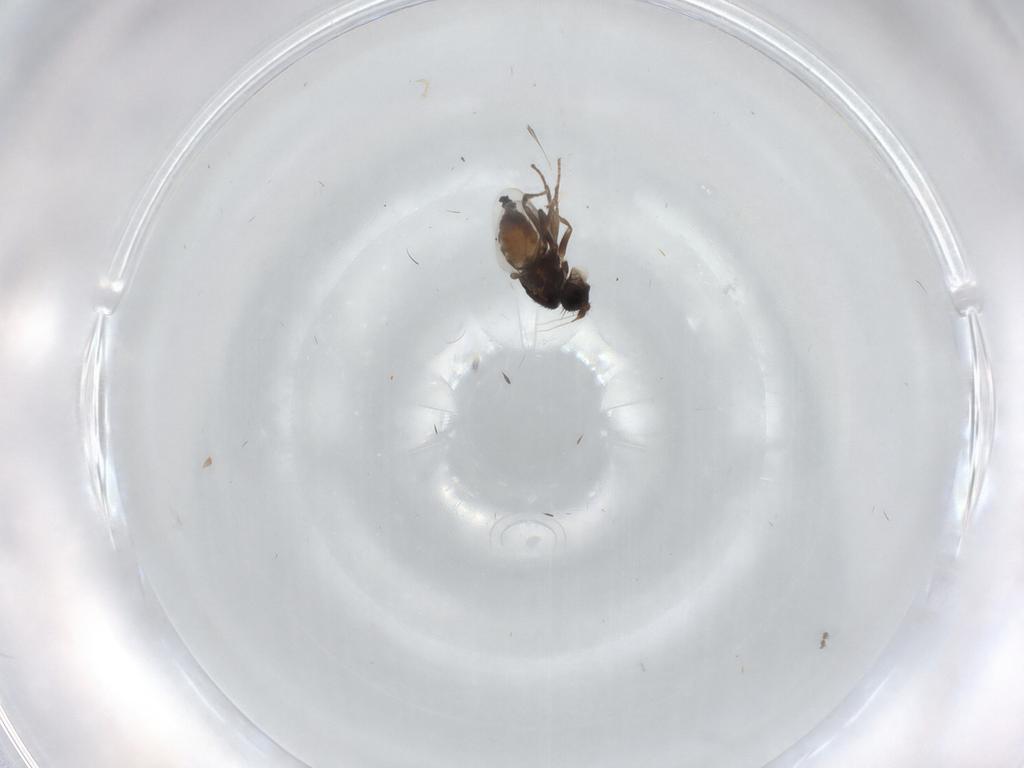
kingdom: Animalia
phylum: Arthropoda
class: Insecta
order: Diptera
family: Sphaeroceridae
